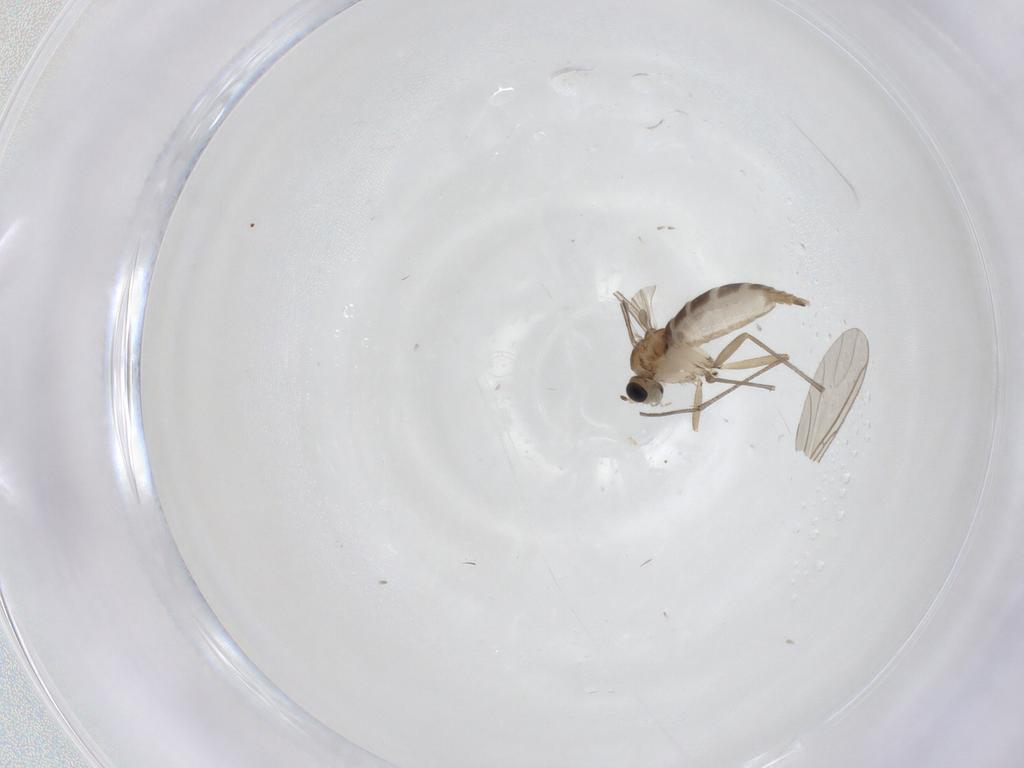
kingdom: Animalia
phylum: Arthropoda
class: Insecta
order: Diptera
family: Sciaridae
